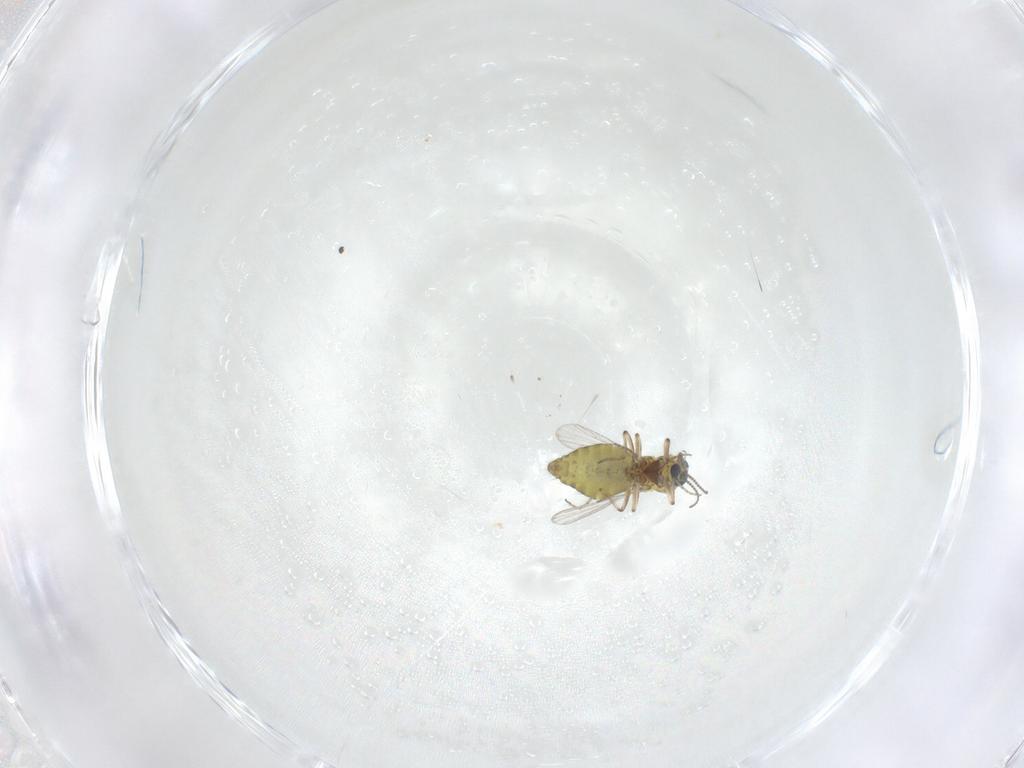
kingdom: Animalia
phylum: Arthropoda
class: Insecta
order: Diptera
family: Ceratopogonidae
